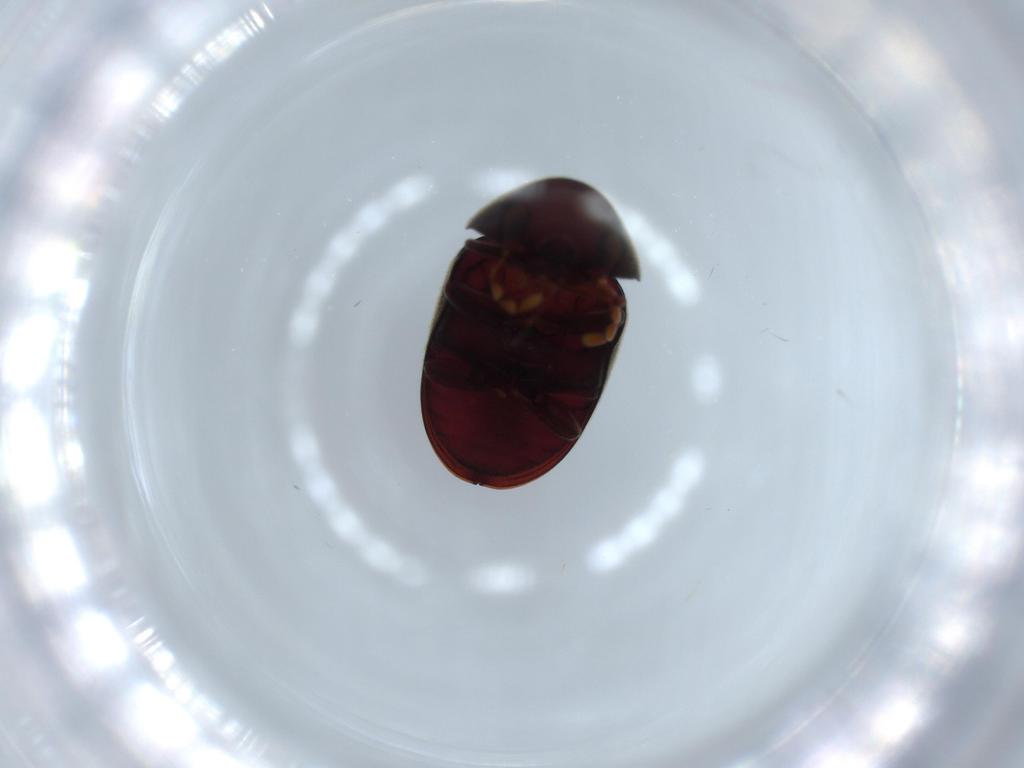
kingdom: Animalia
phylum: Arthropoda
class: Insecta
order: Coleoptera
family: Ptinidae
